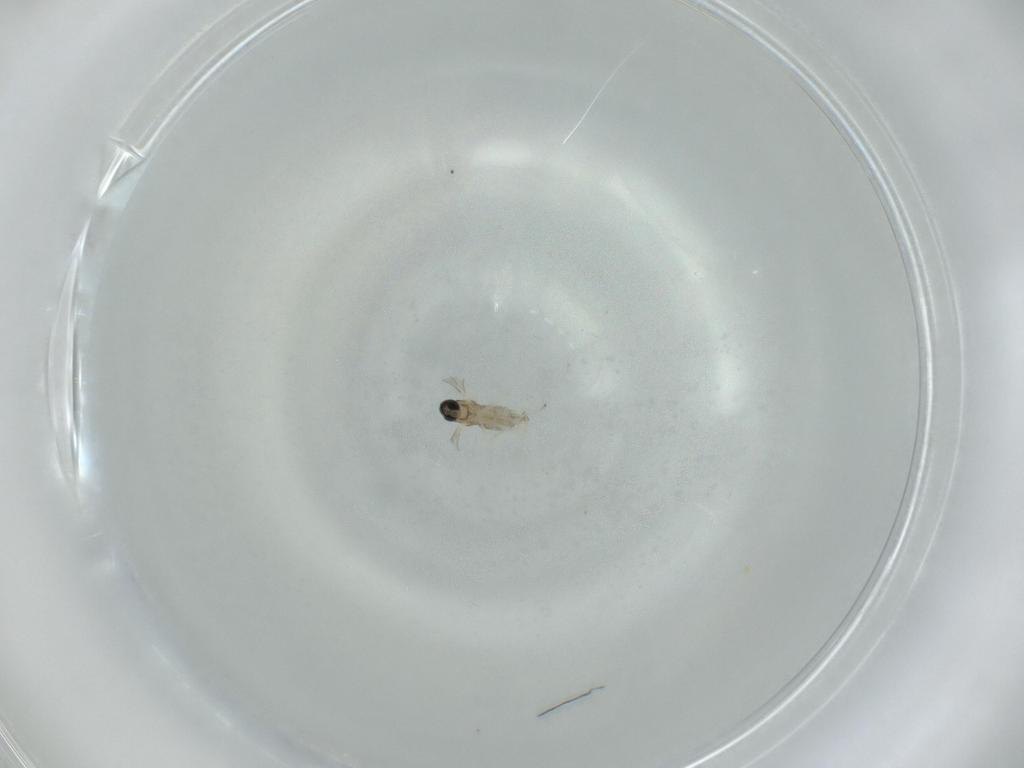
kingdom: Animalia
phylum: Arthropoda
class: Insecta
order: Diptera
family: Cecidomyiidae
